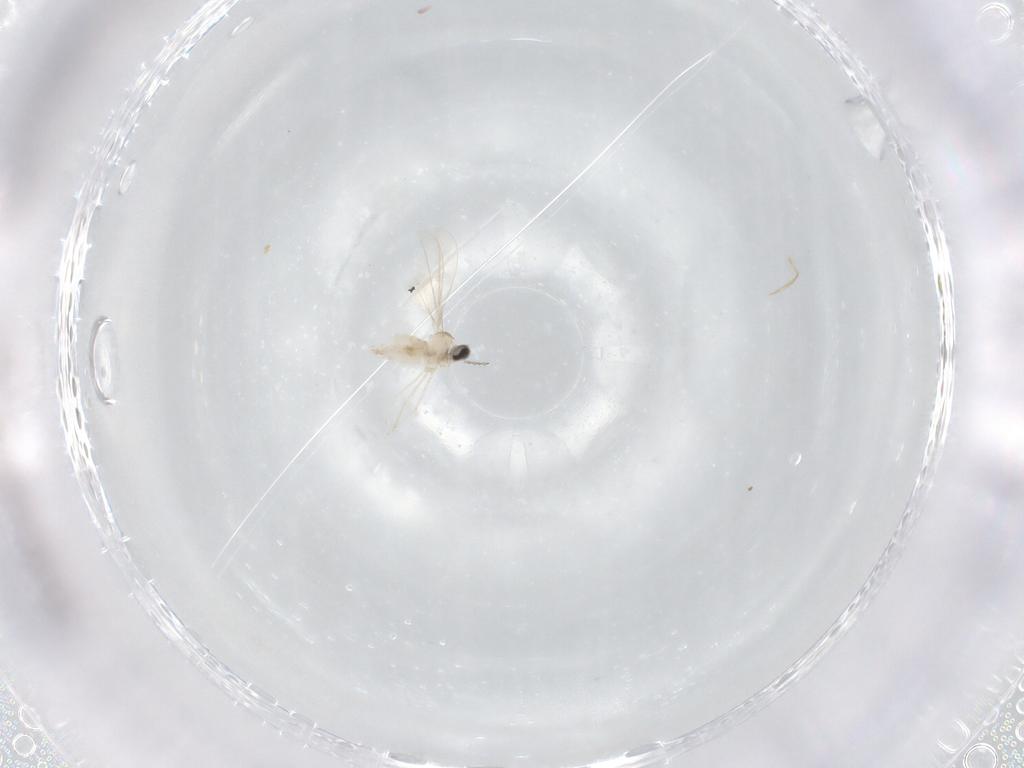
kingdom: Animalia
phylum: Arthropoda
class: Insecta
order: Diptera
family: Cecidomyiidae
